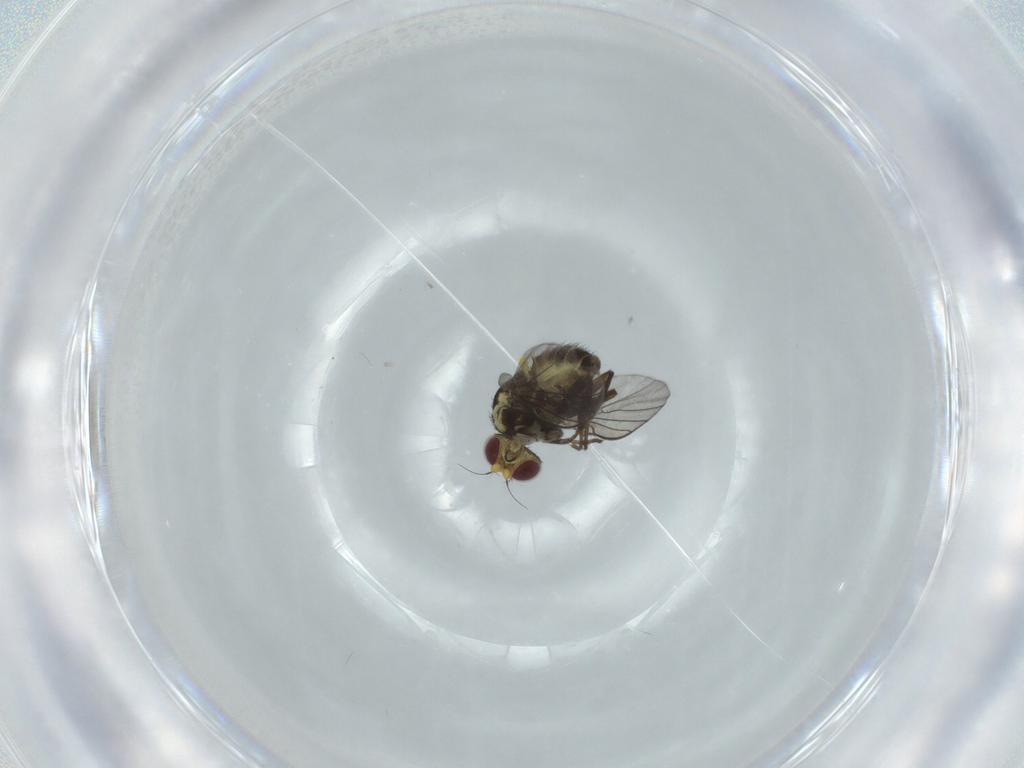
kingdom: Animalia
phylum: Arthropoda
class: Insecta
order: Diptera
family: Agromyzidae
